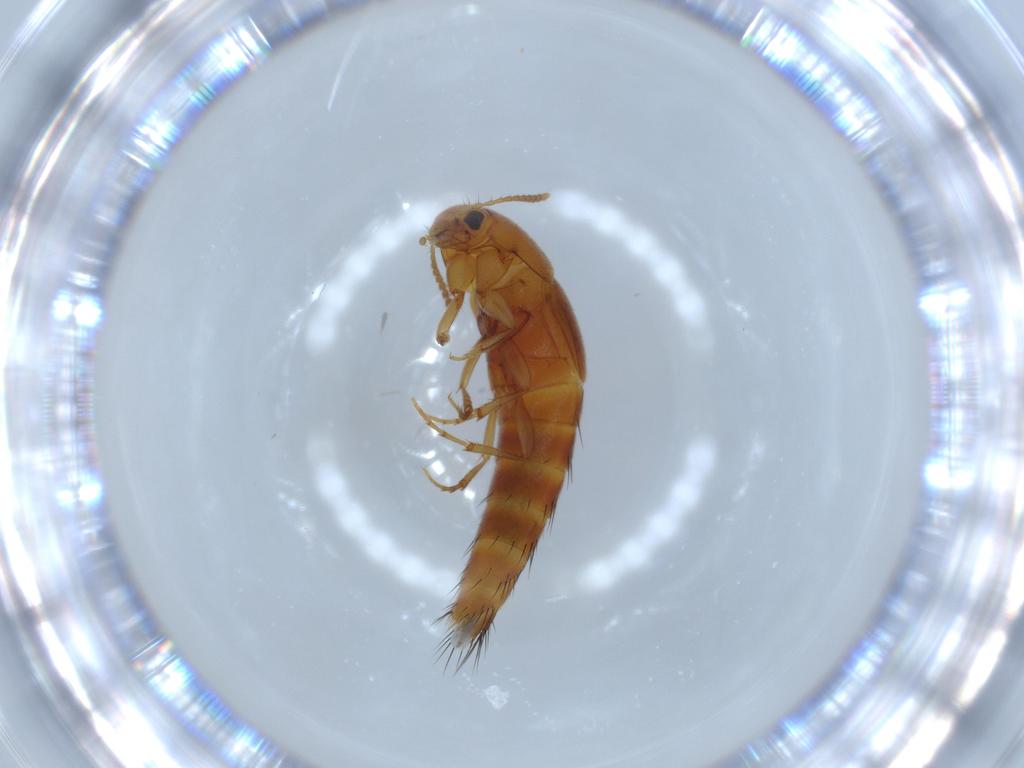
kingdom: Animalia
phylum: Arthropoda
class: Insecta
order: Coleoptera
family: Staphylinidae
